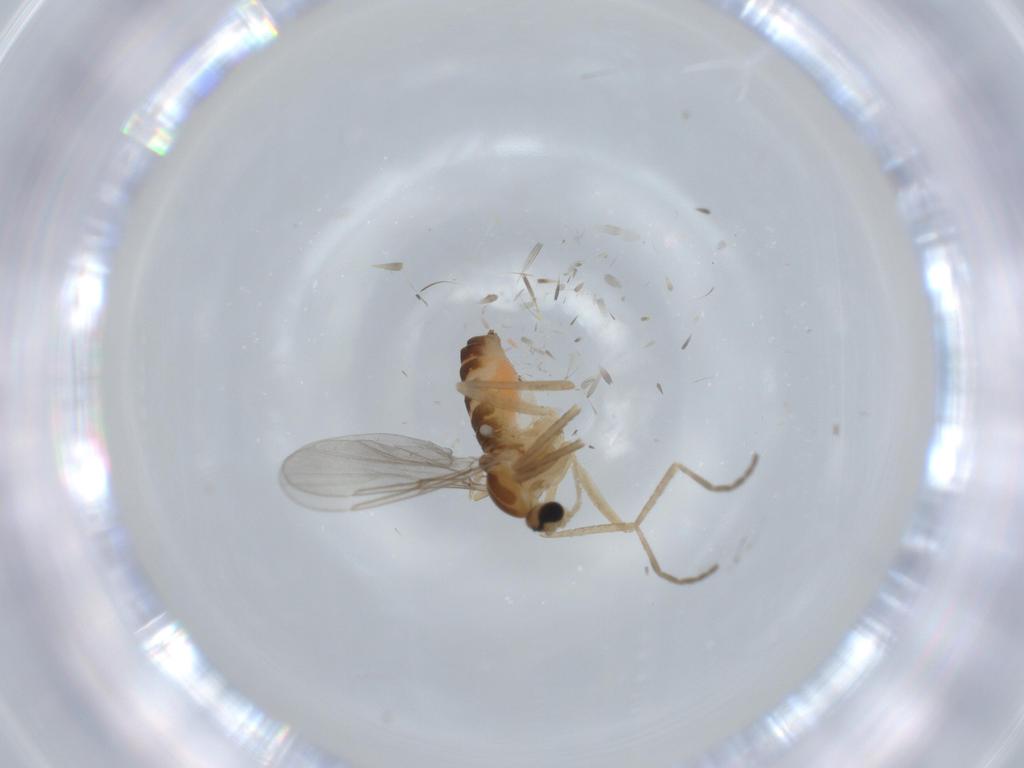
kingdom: Animalia
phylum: Arthropoda
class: Insecta
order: Diptera
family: Cecidomyiidae
